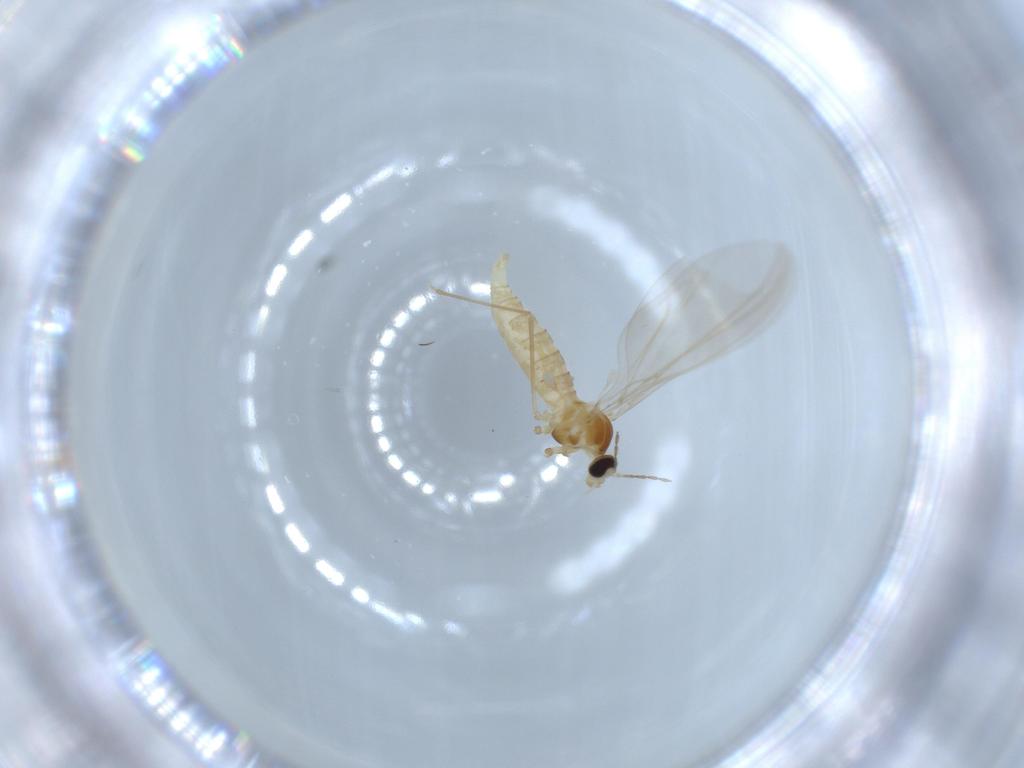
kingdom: Animalia
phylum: Arthropoda
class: Insecta
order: Diptera
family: Cecidomyiidae
